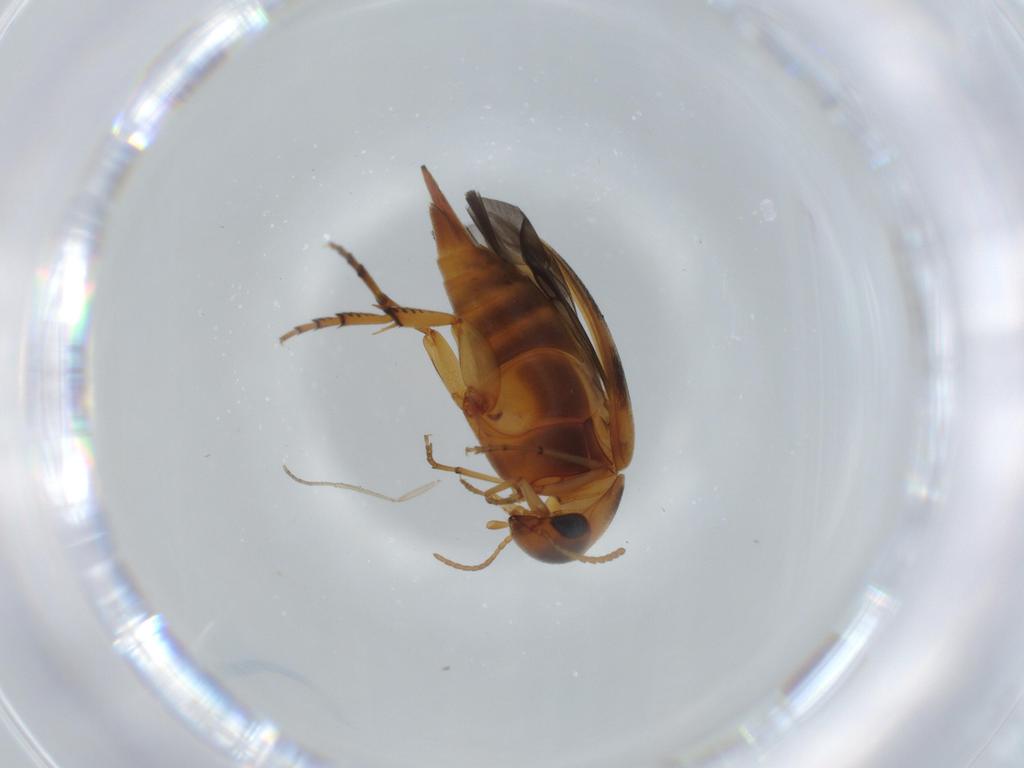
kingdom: Animalia
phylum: Arthropoda
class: Insecta
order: Coleoptera
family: Mordellidae
